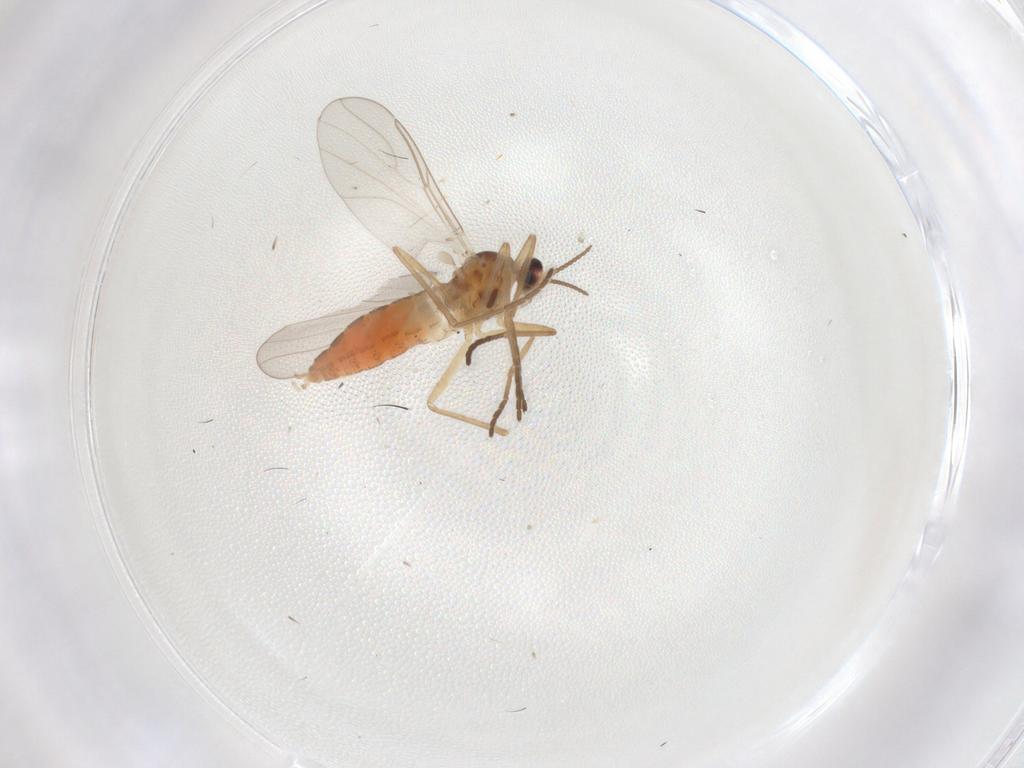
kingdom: Animalia
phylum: Arthropoda
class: Insecta
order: Diptera
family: Cecidomyiidae
